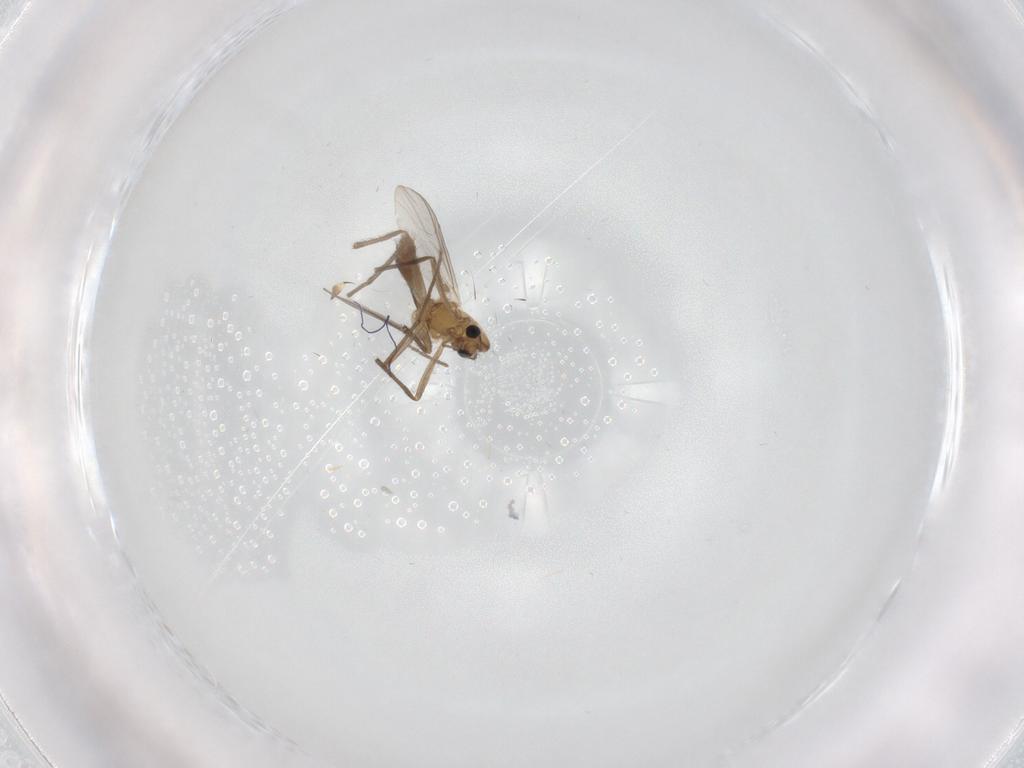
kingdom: Animalia
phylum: Arthropoda
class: Insecta
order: Diptera
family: Chironomidae
